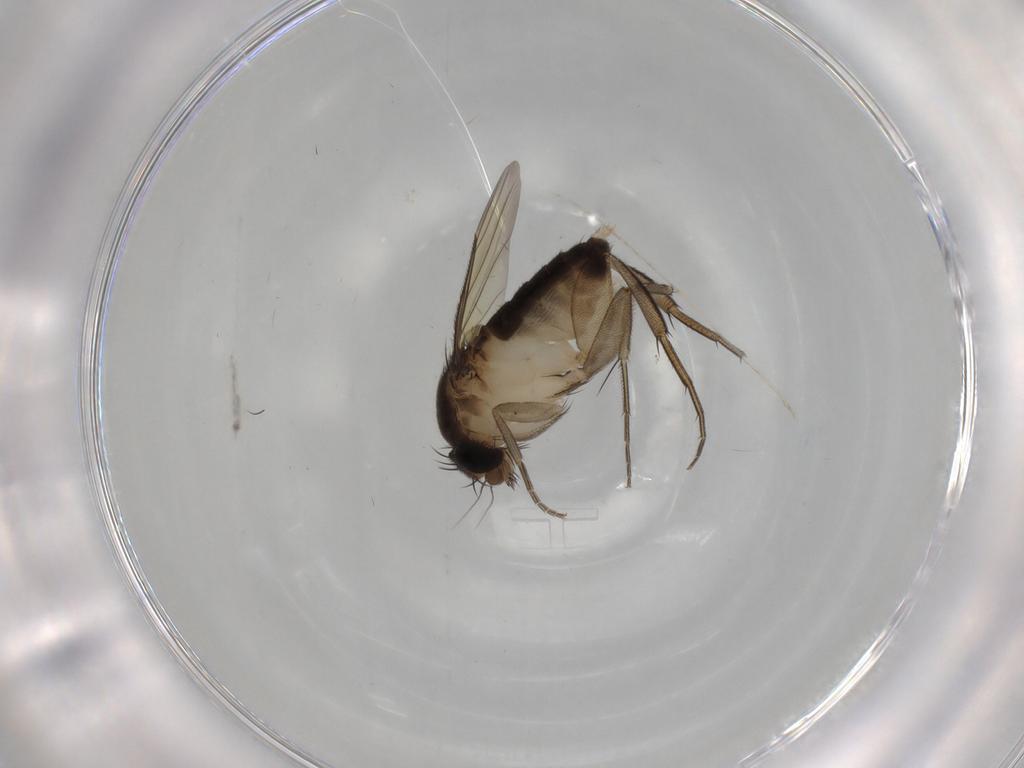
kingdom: Animalia
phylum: Arthropoda
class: Insecta
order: Diptera
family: Phoridae
